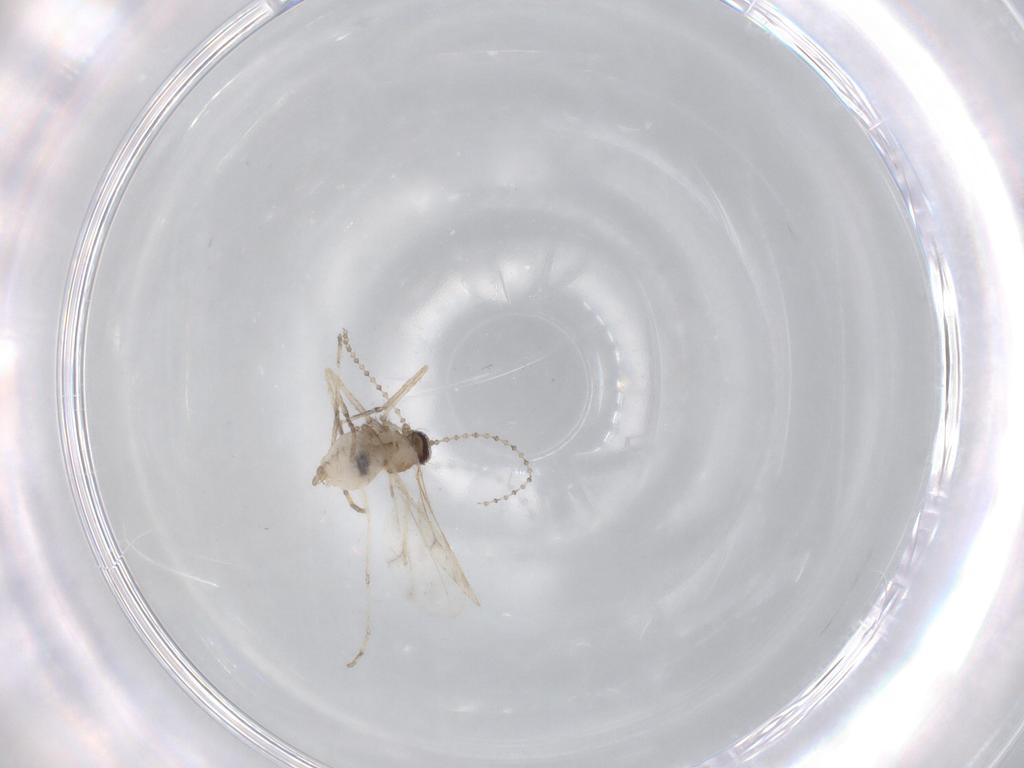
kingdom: Animalia
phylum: Arthropoda
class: Insecta
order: Diptera
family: Cecidomyiidae
